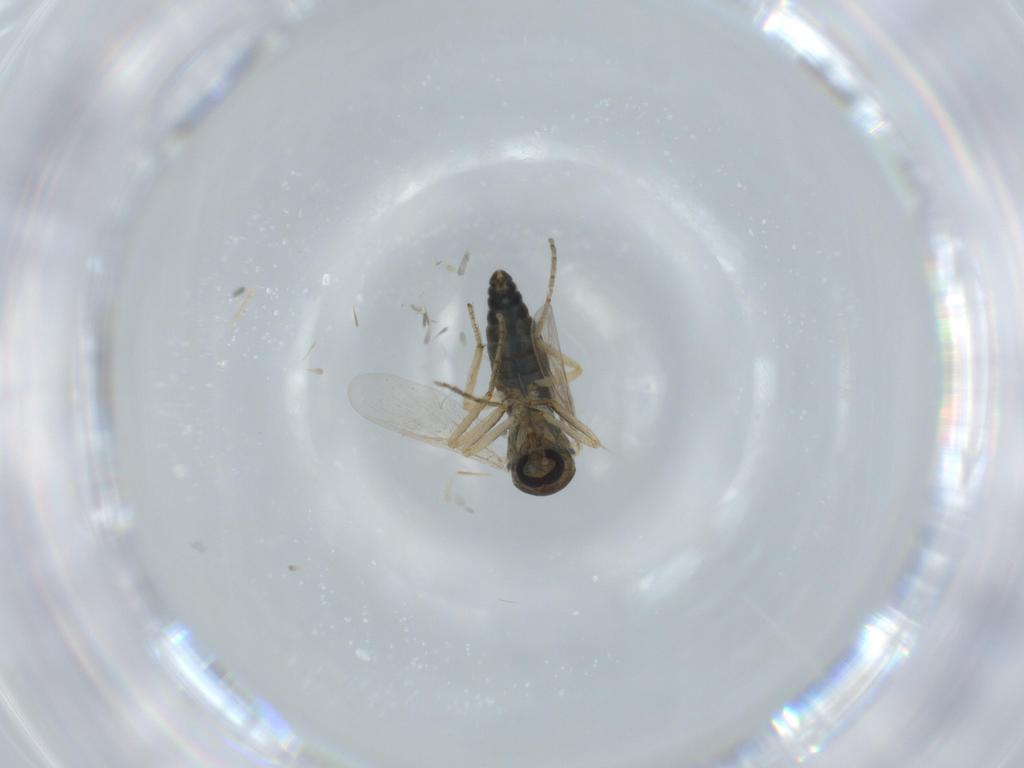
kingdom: Animalia
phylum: Arthropoda
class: Insecta
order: Diptera
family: Ceratopogonidae
